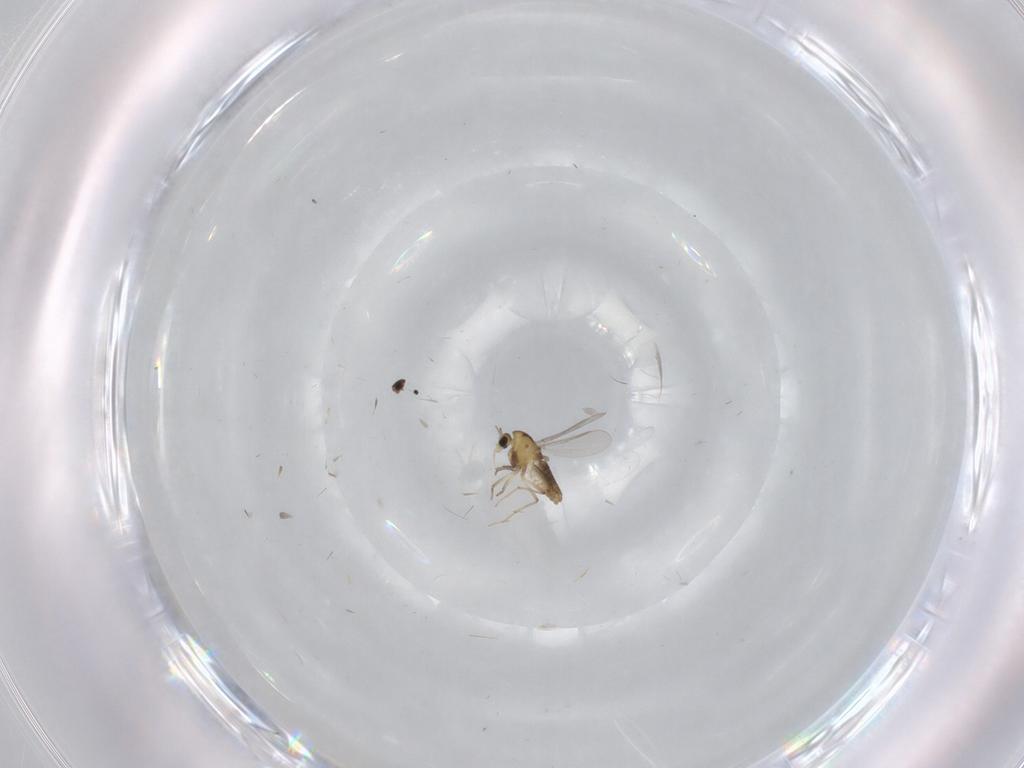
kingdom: Animalia
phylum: Arthropoda
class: Insecta
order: Diptera
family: Phoridae
